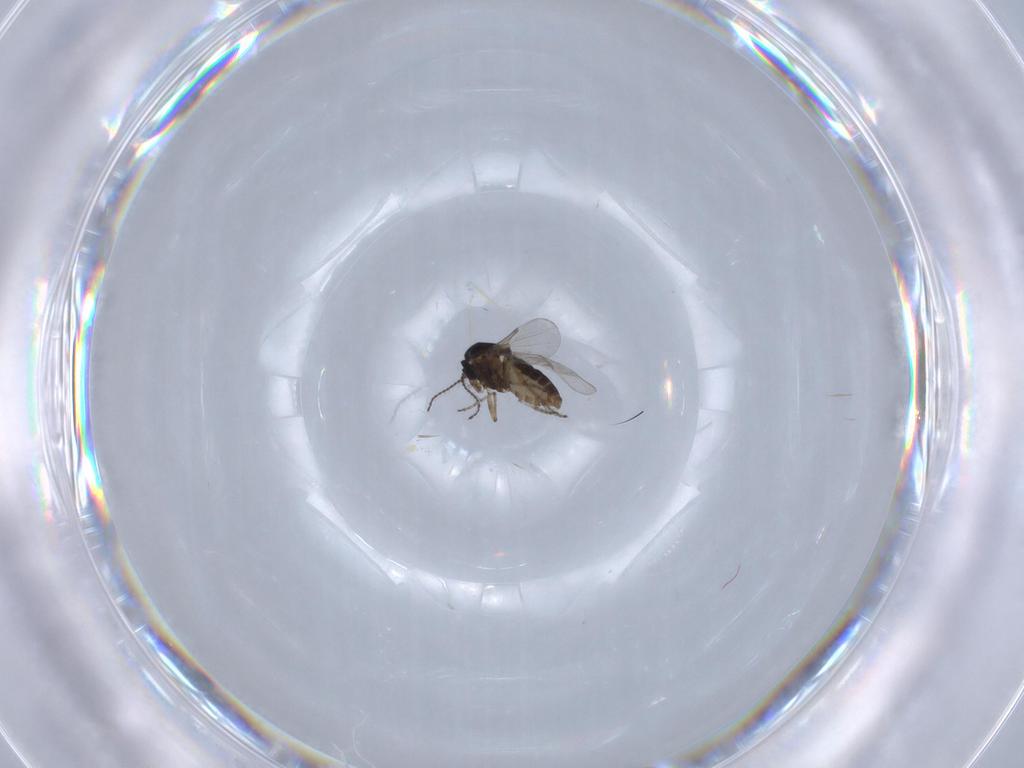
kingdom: Animalia
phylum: Arthropoda
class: Insecta
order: Diptera
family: Ceratopogonidae
